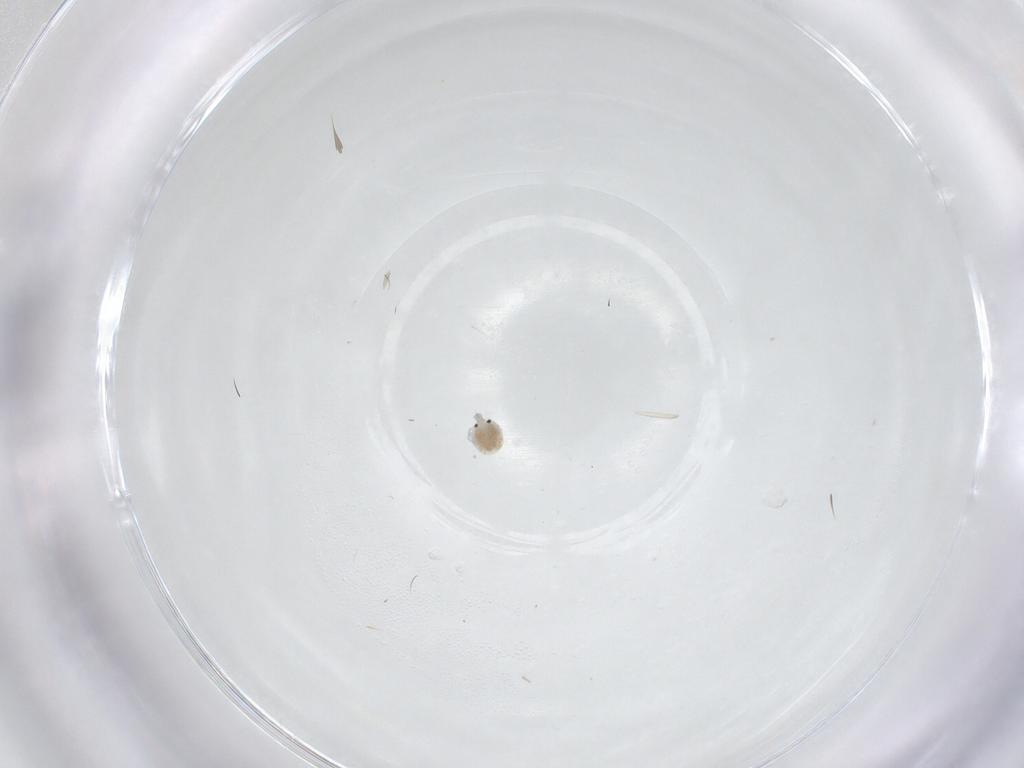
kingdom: Animalia
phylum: Arthropoda
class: Arachnida
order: Trombidiformes
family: Pionidae
